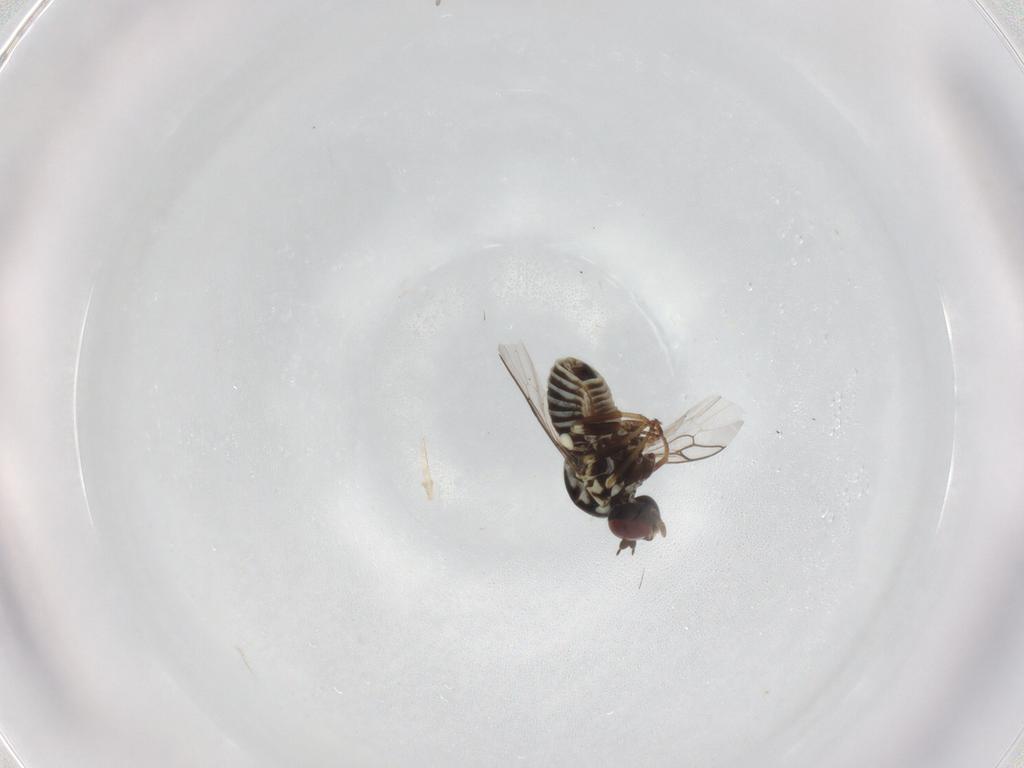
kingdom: Animalia
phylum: Arthropoda
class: Insecta
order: Diptera
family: Bombyliidae
